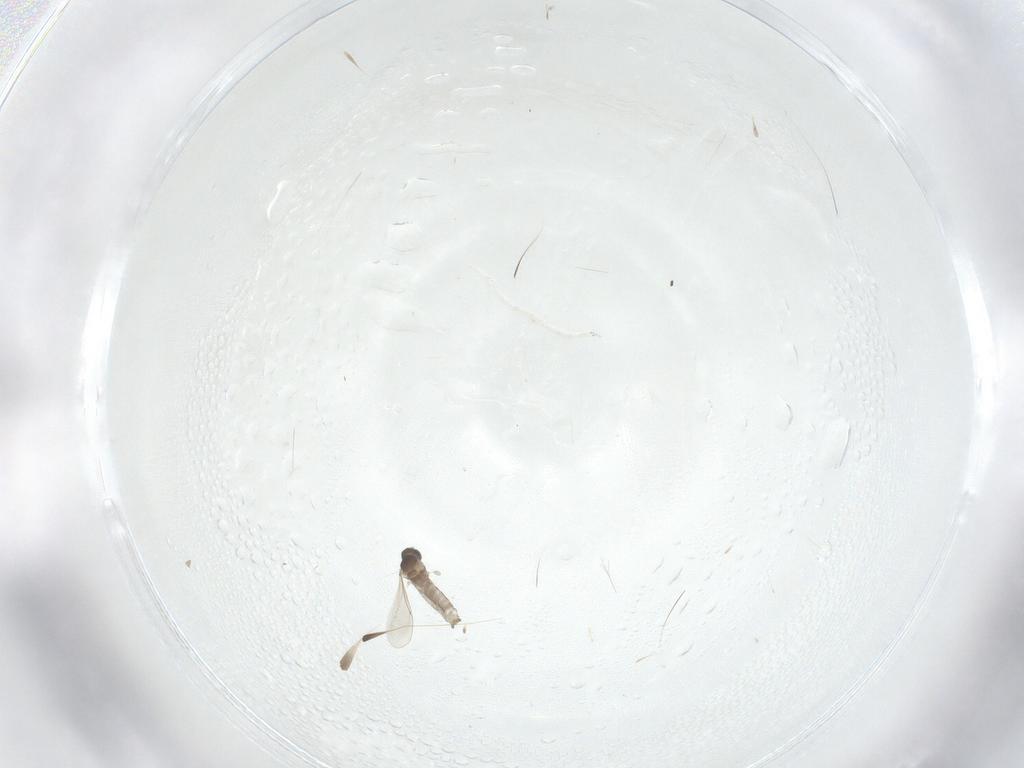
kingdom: Animalia
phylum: Arthropoda
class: Insecta
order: Diptera
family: Cecidomyiidae
